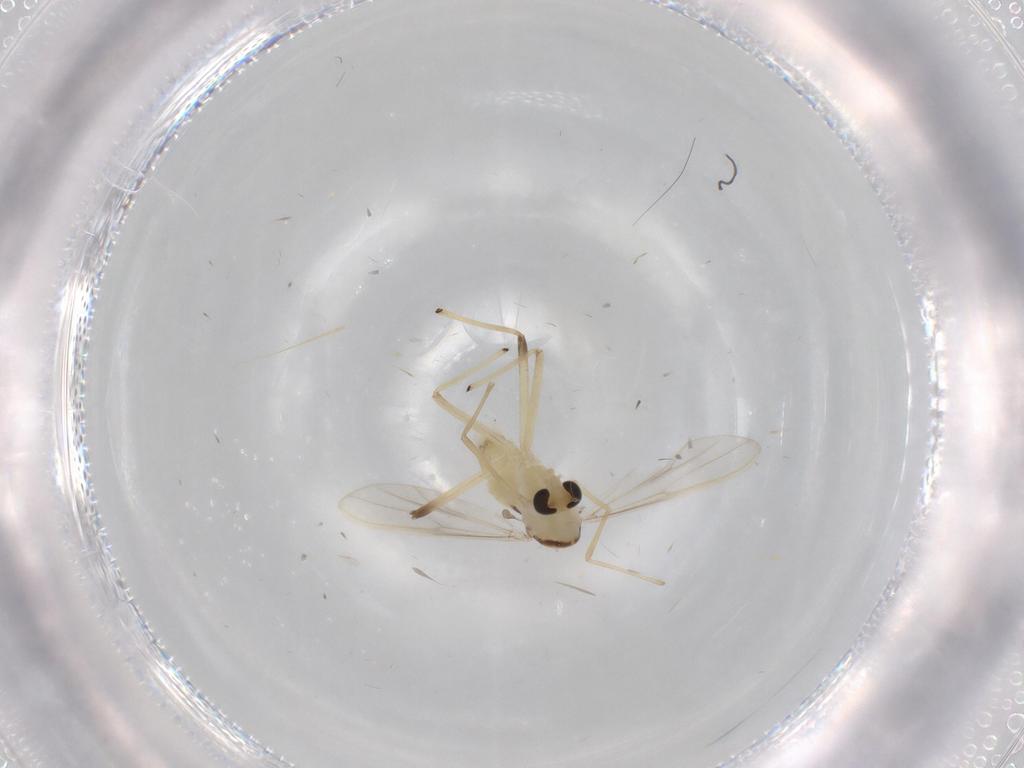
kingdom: Animalia
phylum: Arthropoda
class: Insecta
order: Diptera
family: Chironomidae
